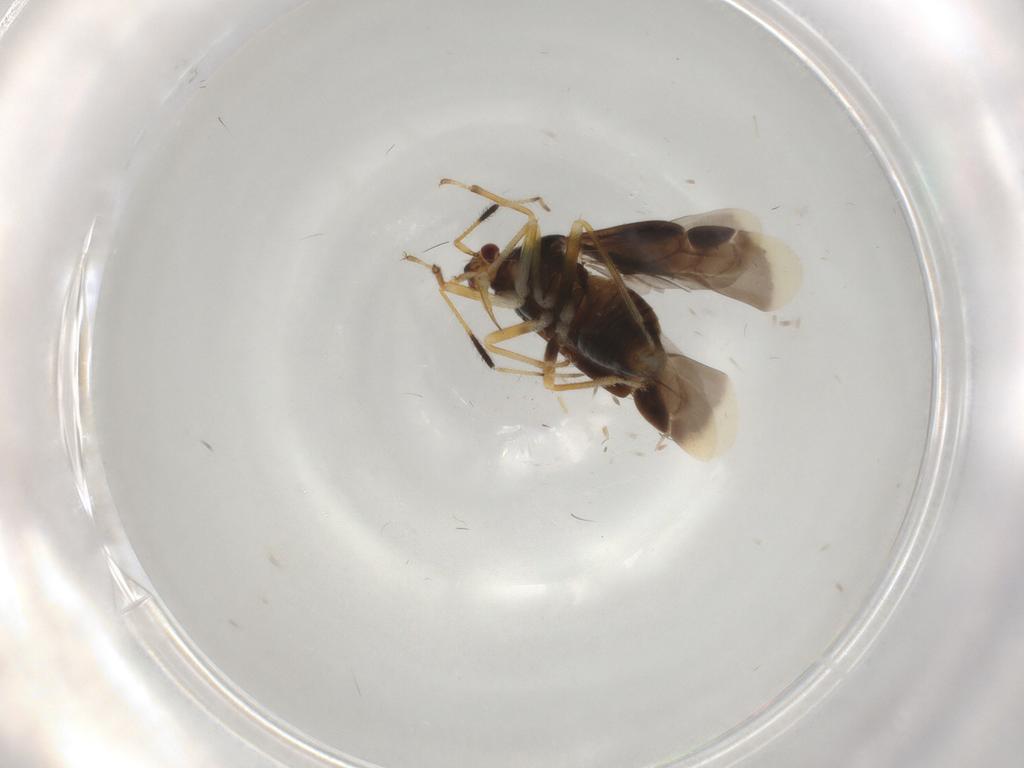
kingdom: Animalia
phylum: Arthropoda
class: Insecta
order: Hemiptera
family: Miridae
